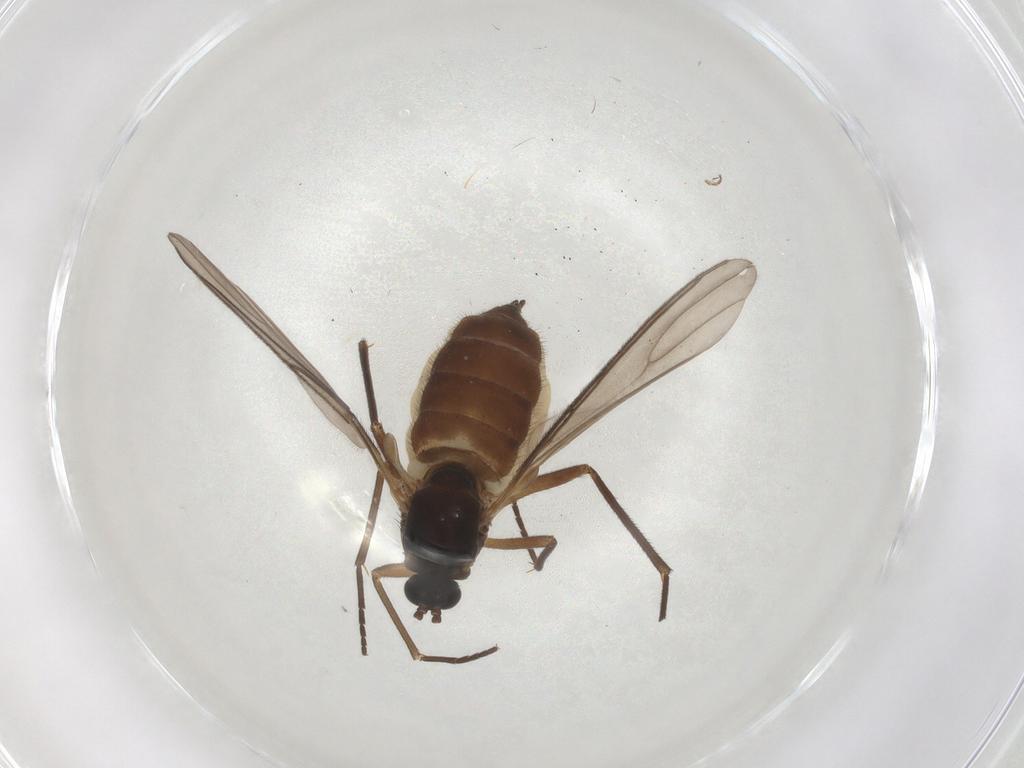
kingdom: Animalia
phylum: Arthropoda
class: Insecta
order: Diptera
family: Sciaridae
